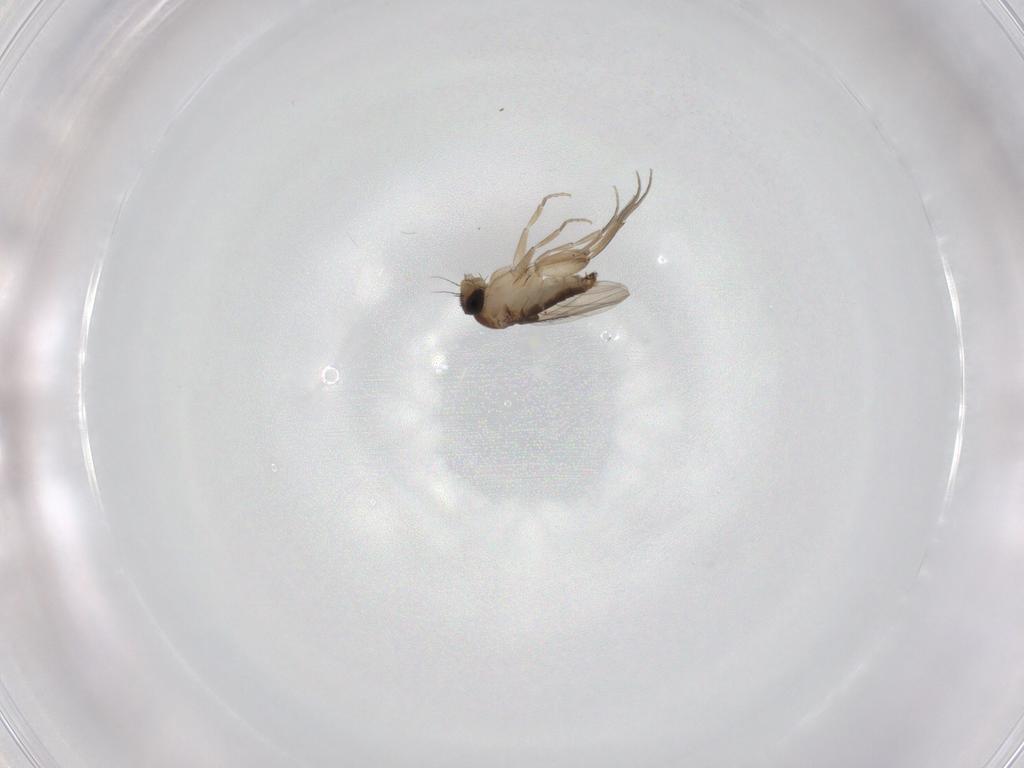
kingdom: Animalia
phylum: Arthropoda
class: Insecta
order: Diptera
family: Phoridae
